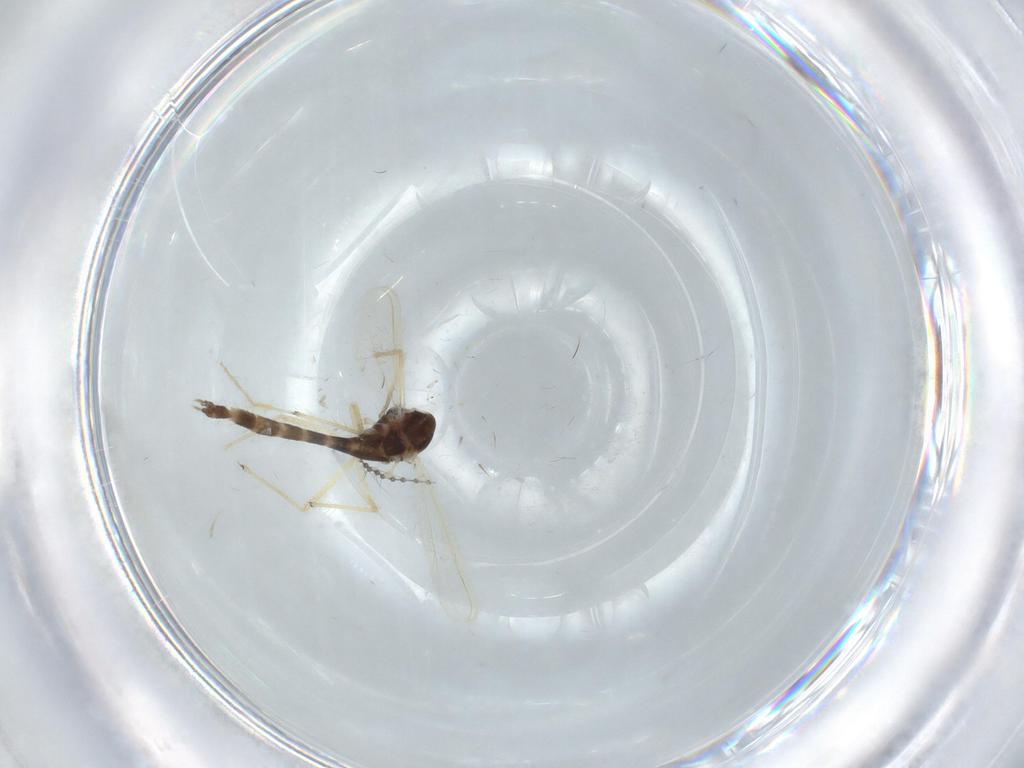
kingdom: Animalia
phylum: Arthropoda
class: Insecta
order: Diptera
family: Chironomidae
